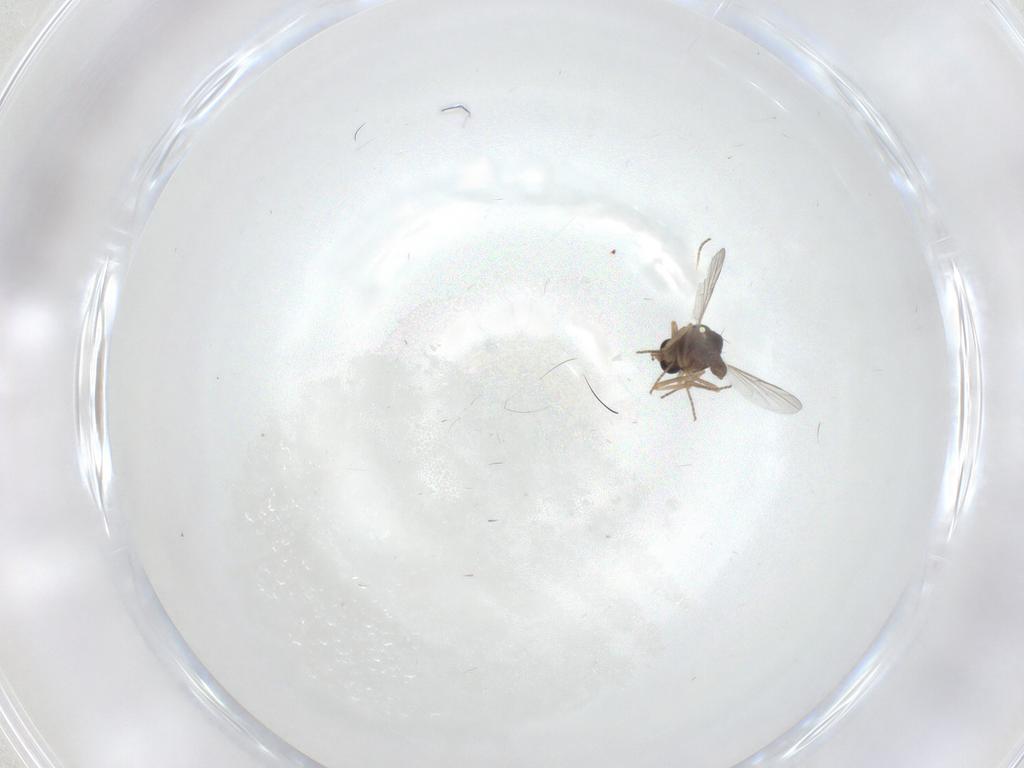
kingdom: Animalia
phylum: Arthropoda
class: Insecta
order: Diptera
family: Ceratopogonidae
